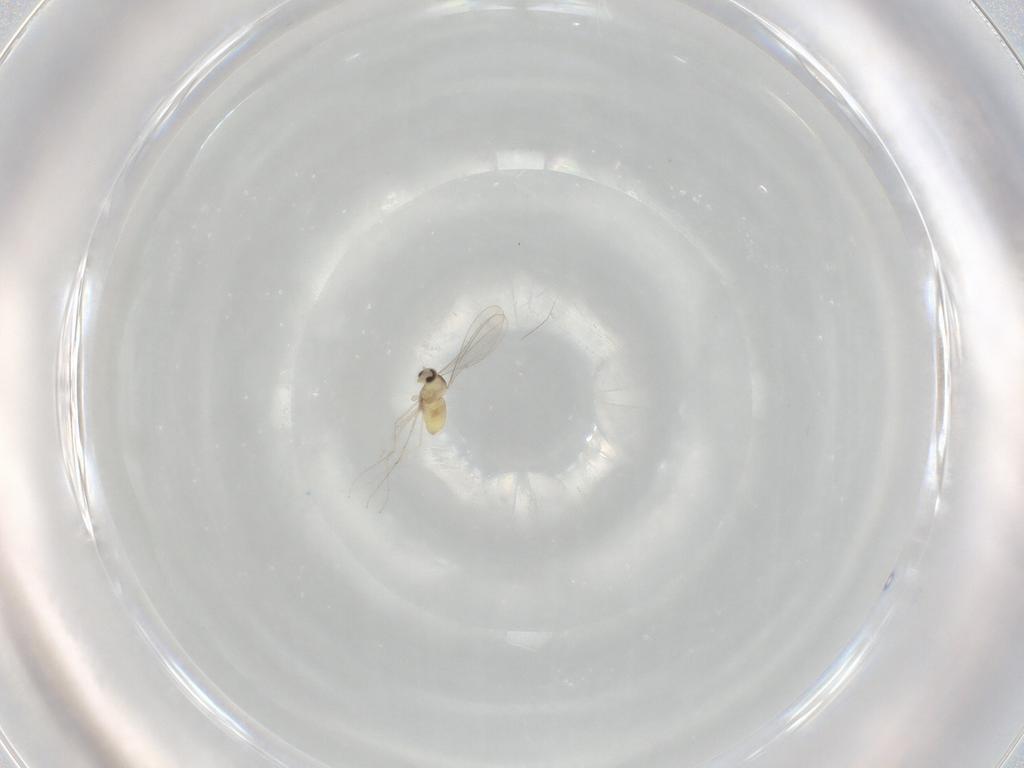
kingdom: Animalia
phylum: Arthropoda
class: Insecta
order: Diptera
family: Cecidomyiidae
